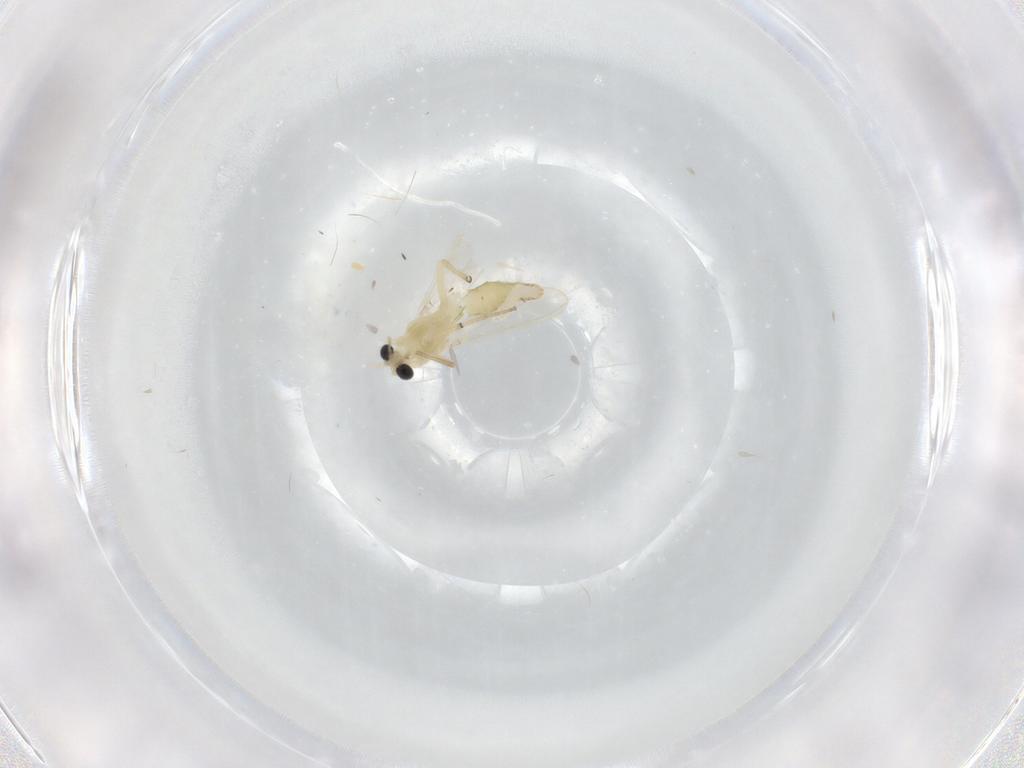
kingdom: Animalia
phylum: Arthropoda
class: Insecta
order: Diptera
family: Chironomidae
